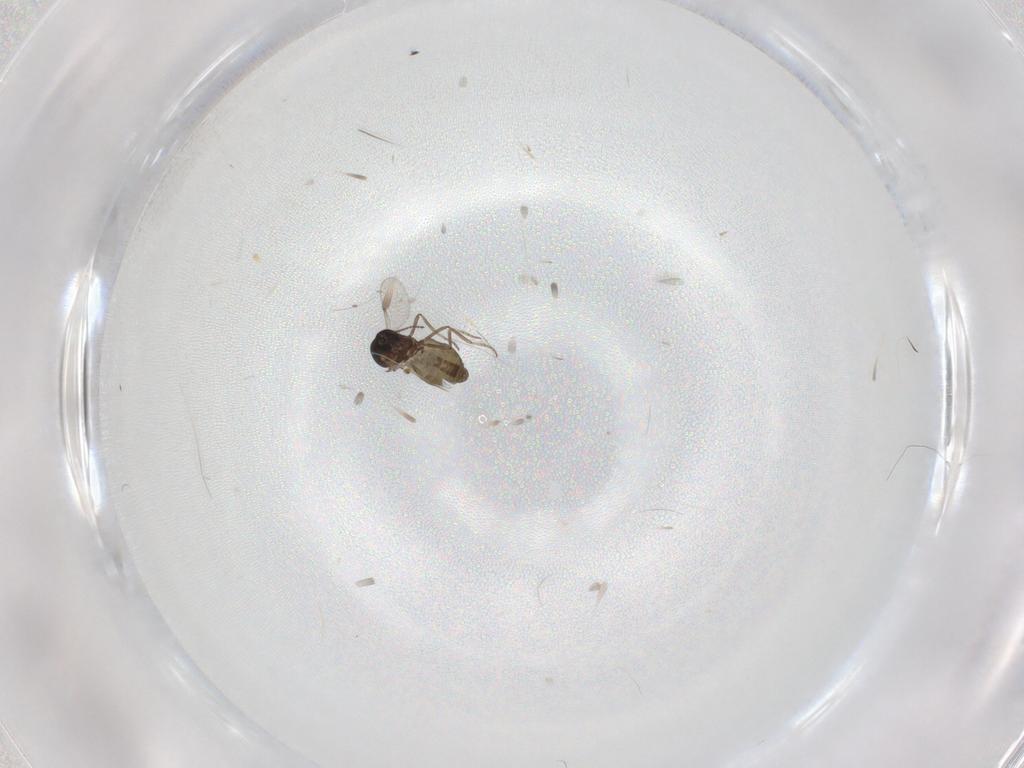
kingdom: Animalia
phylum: Arthropoda
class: Insecta
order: Diptera
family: Ceratopogonidae
